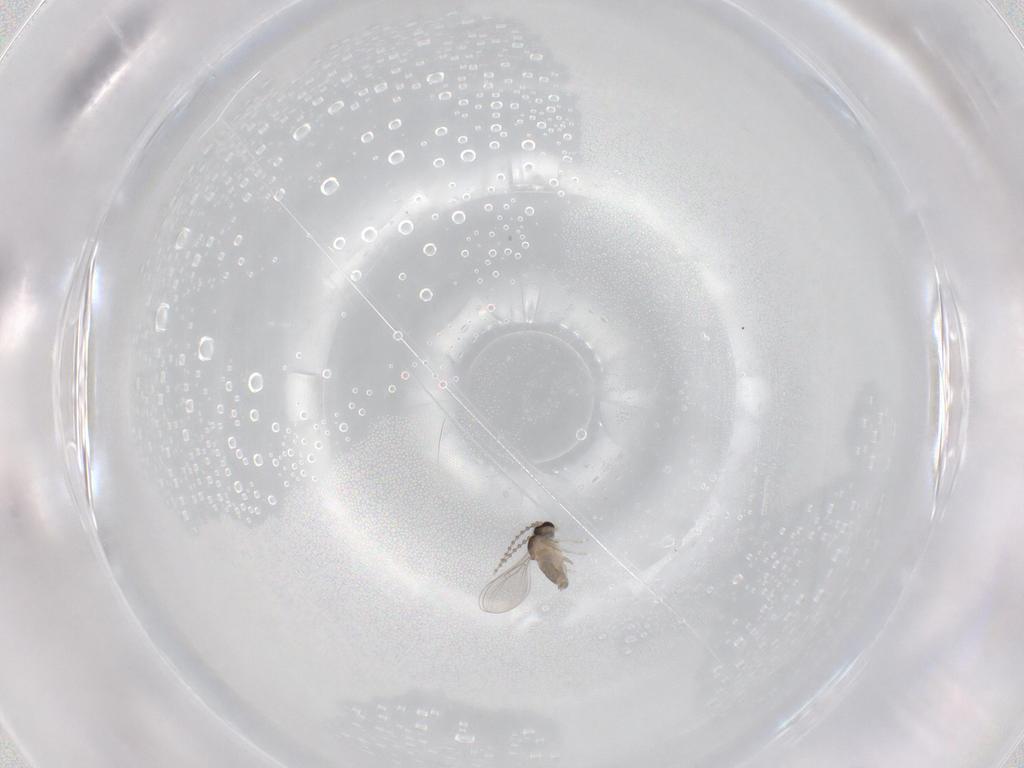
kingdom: Animalia
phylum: Arthropoda
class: Insecta
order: Diptera
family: Cecidomyiidae
